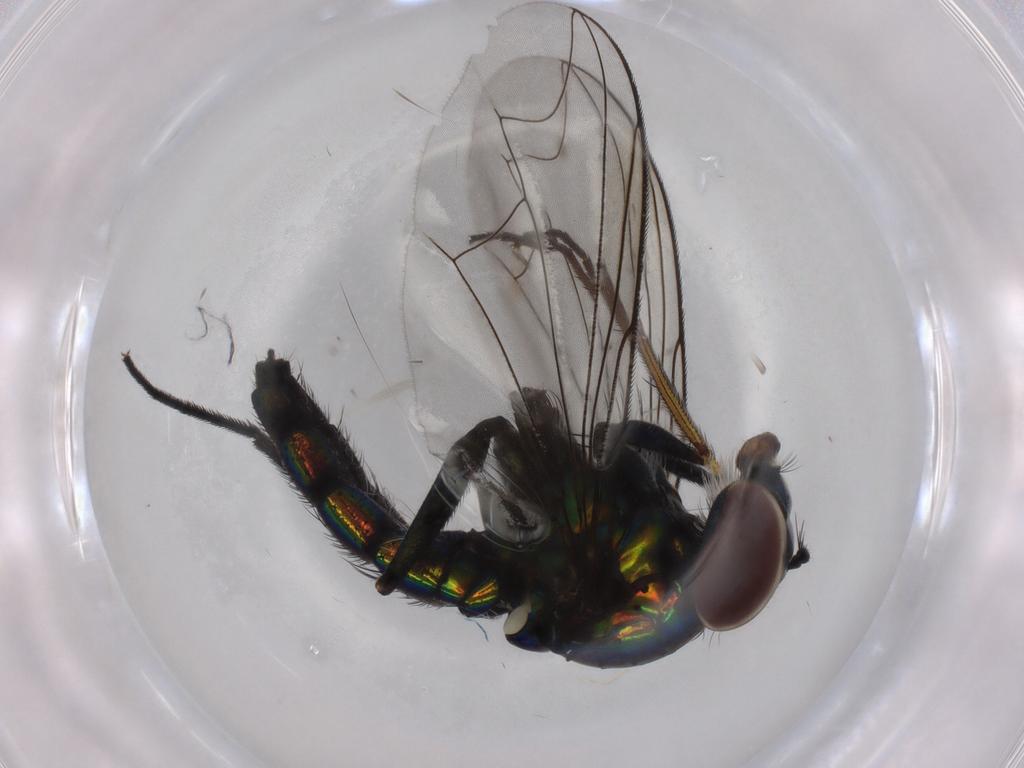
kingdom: Animalia
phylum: Arthropoda
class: Insecta
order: Diptera
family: Dolichopodidae
